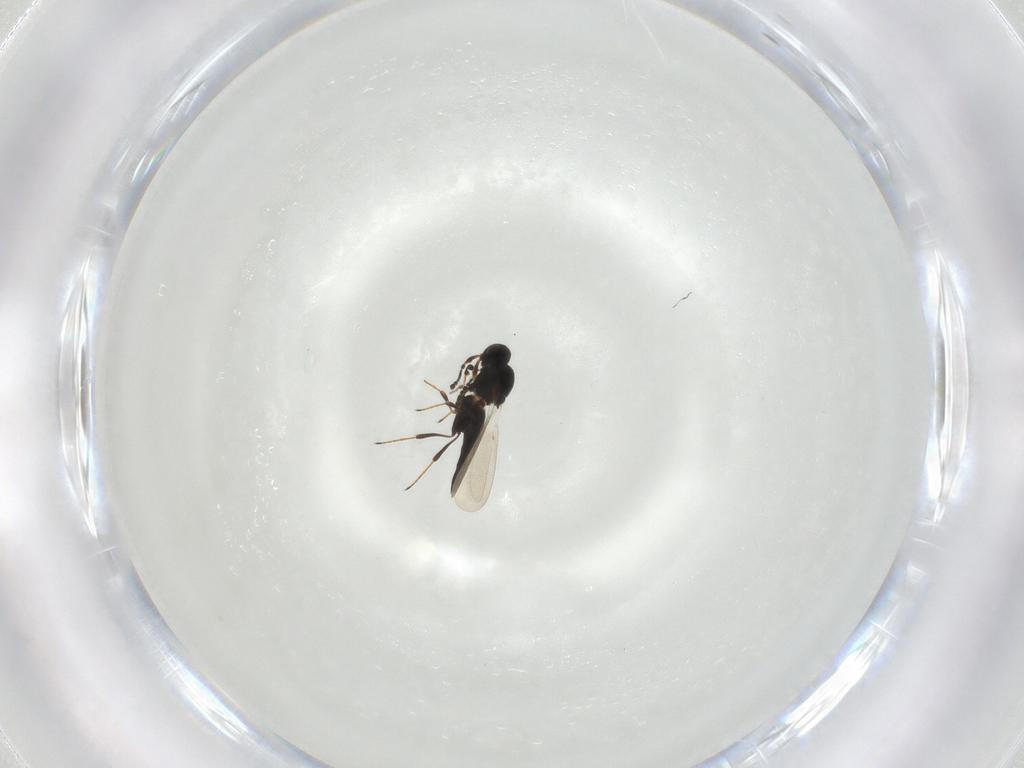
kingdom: Animalia
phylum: Arthropoda
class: Insecta
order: Hymenoptera
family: Platygastridae
